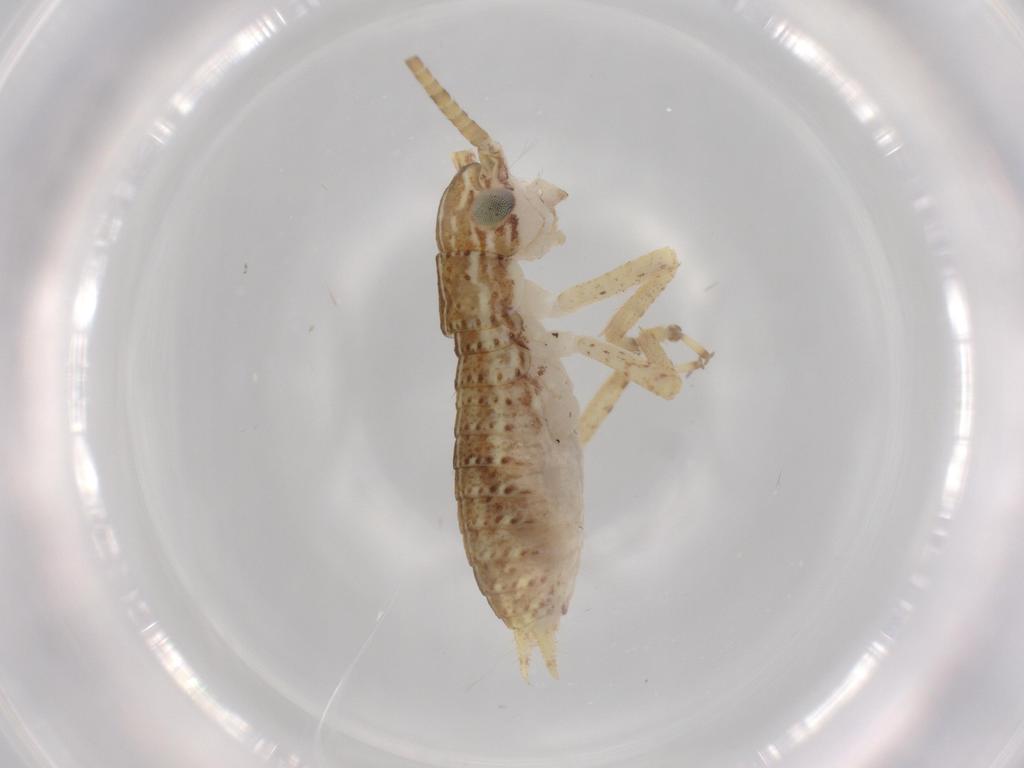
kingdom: Animalia
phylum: Arthropoda
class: Insecta
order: Orthoptera
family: Gryllidae
